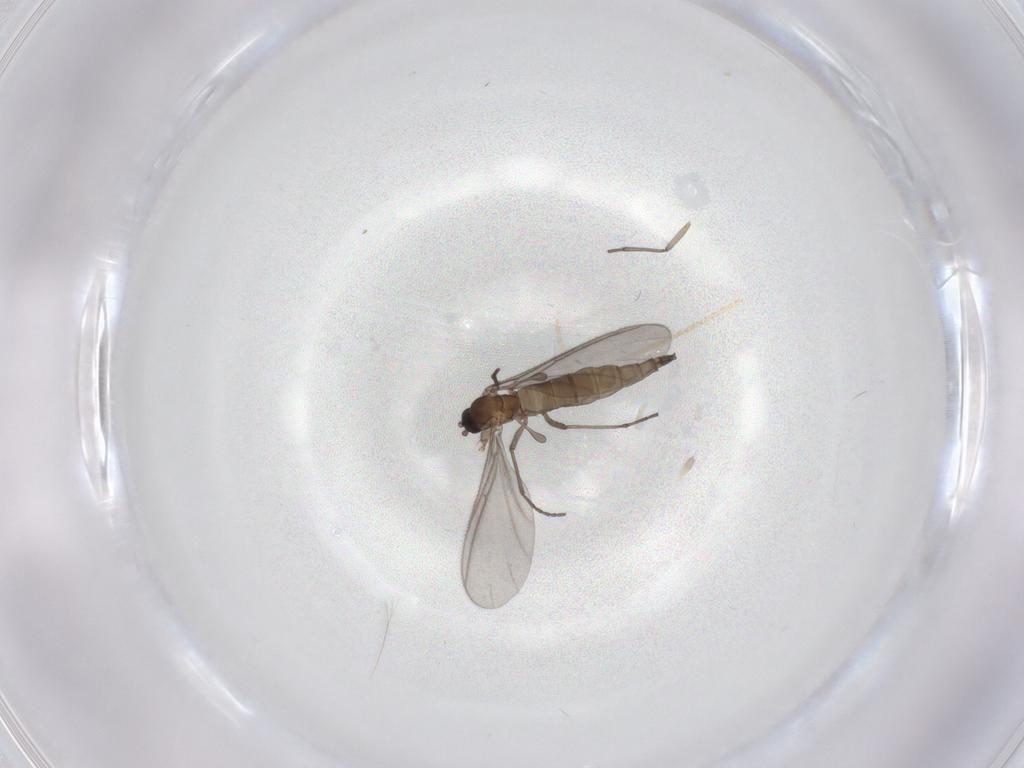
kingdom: Animalia
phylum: Arthropoda
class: Insecta
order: Diptera
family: Sciaridae
